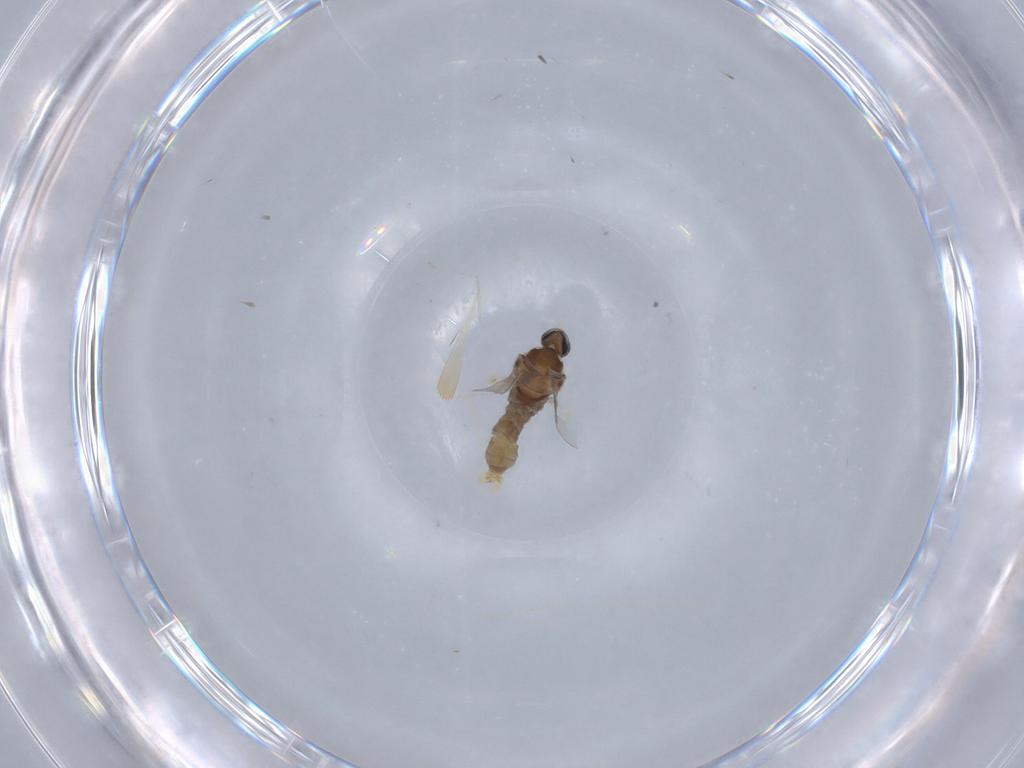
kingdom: Animalia
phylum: Arthropoda
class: Insecta
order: Diptera
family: Cecidomyiidae
